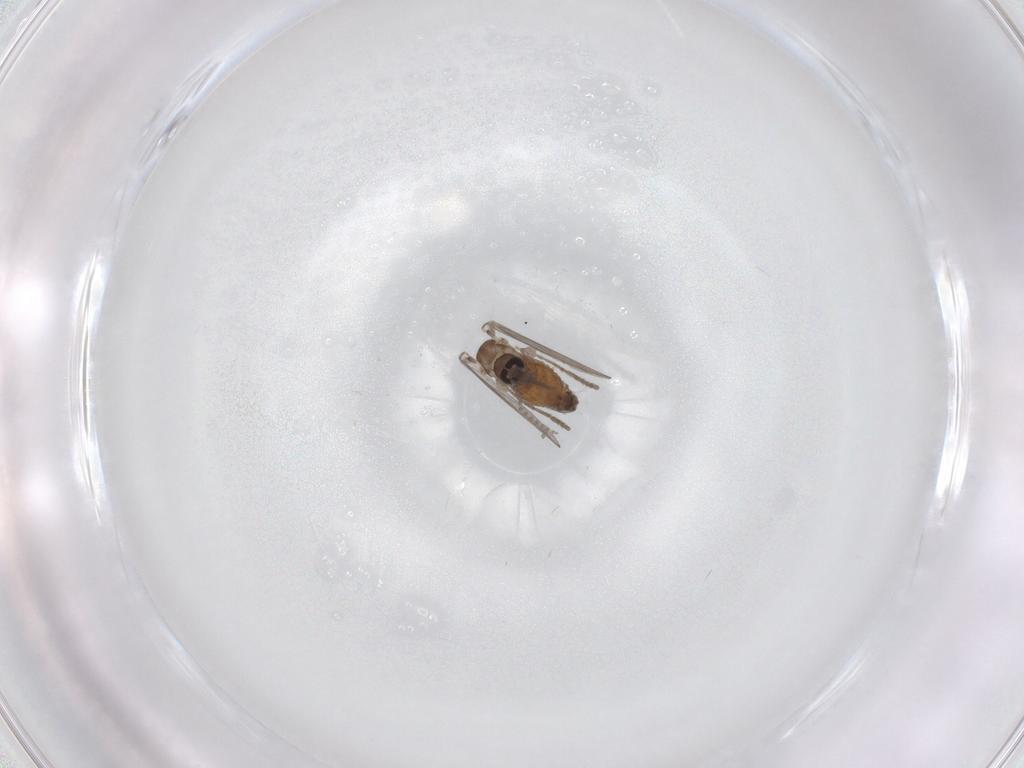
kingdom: Animalia
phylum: Arthropoda
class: Insecta
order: Diptera
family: Psychodidae
